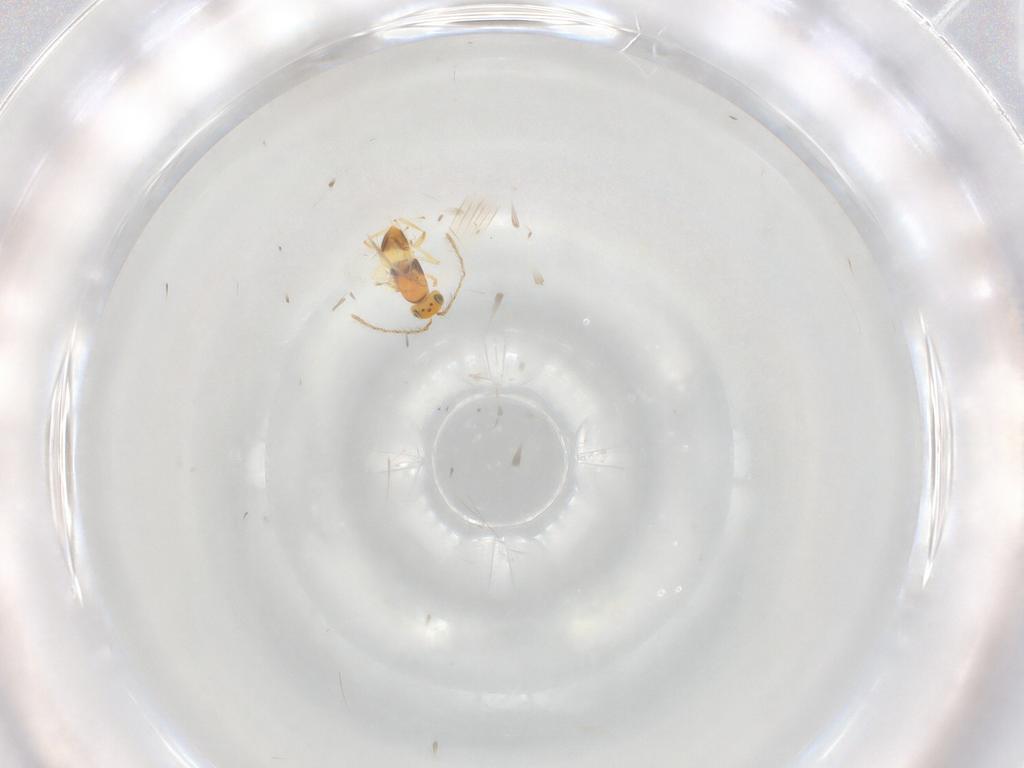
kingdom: Animalia
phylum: Arthropoda
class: Insecta
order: Hymenoptera
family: Encyrtidae
